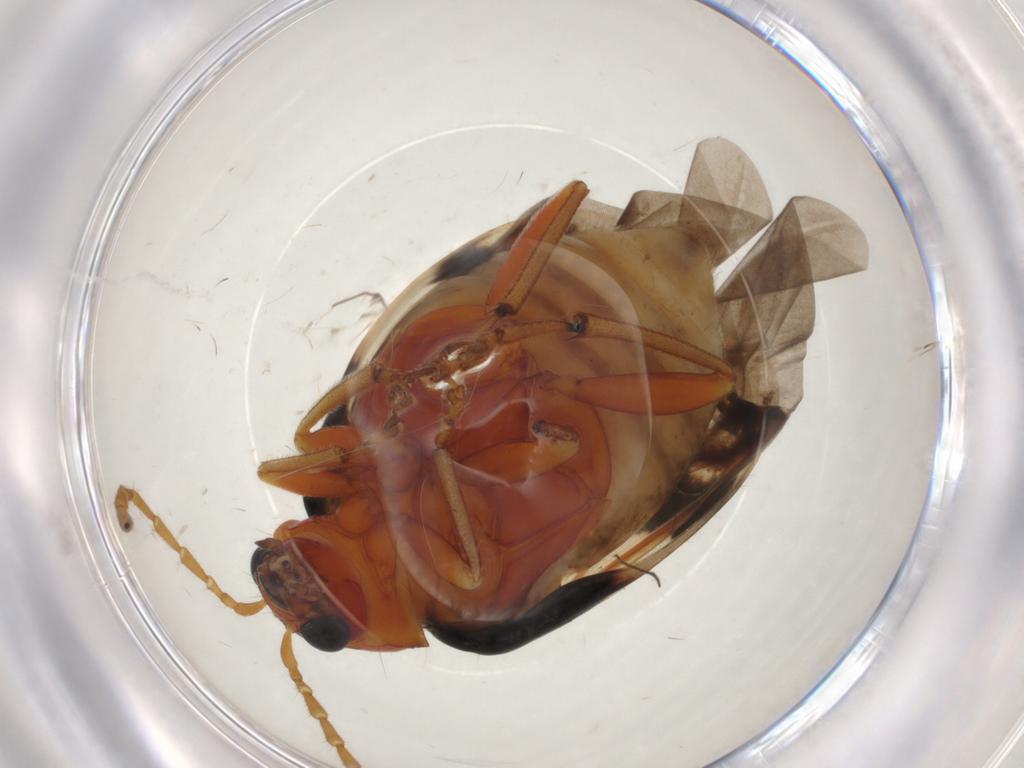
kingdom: Animalia
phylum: Arthropoda
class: Insecta
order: Coleoptera
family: Chrysomelidae
